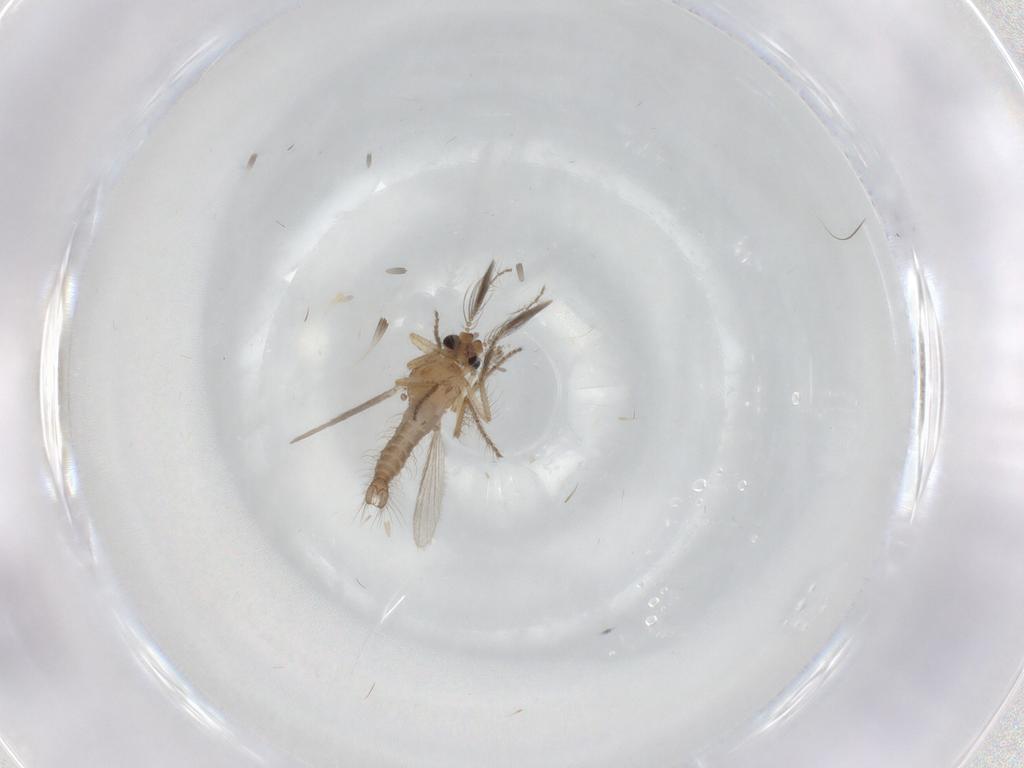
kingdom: Animalia
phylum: Arthropoda
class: Insecta
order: Diptera
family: Ceratopogonidae
